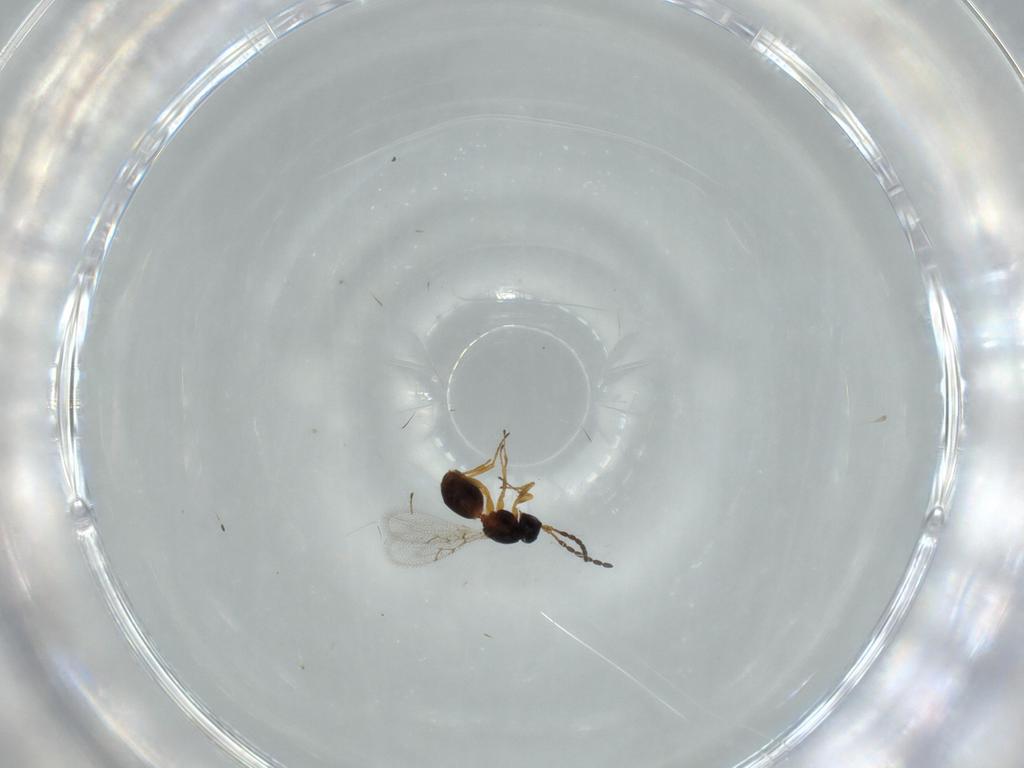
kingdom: Animalia
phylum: Arthropoda
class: Insecta
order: Hymenoptera
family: Figitidae
